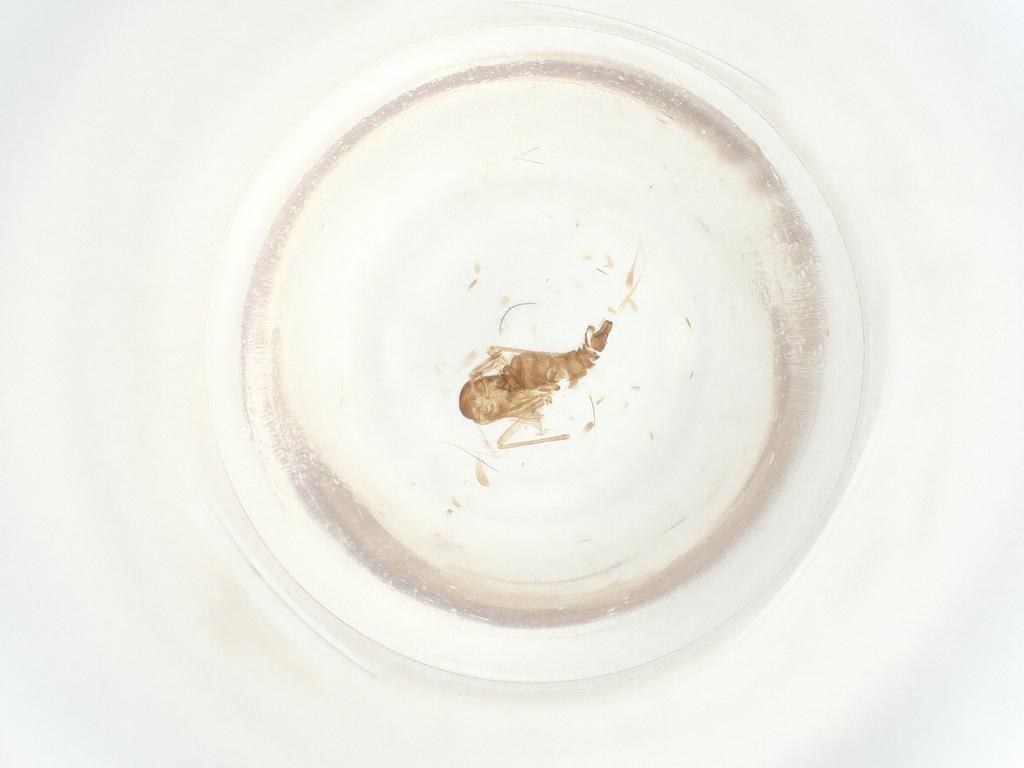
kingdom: Animalia
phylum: Arthropoda
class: Insecta
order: Diptera
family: Sciaridae
